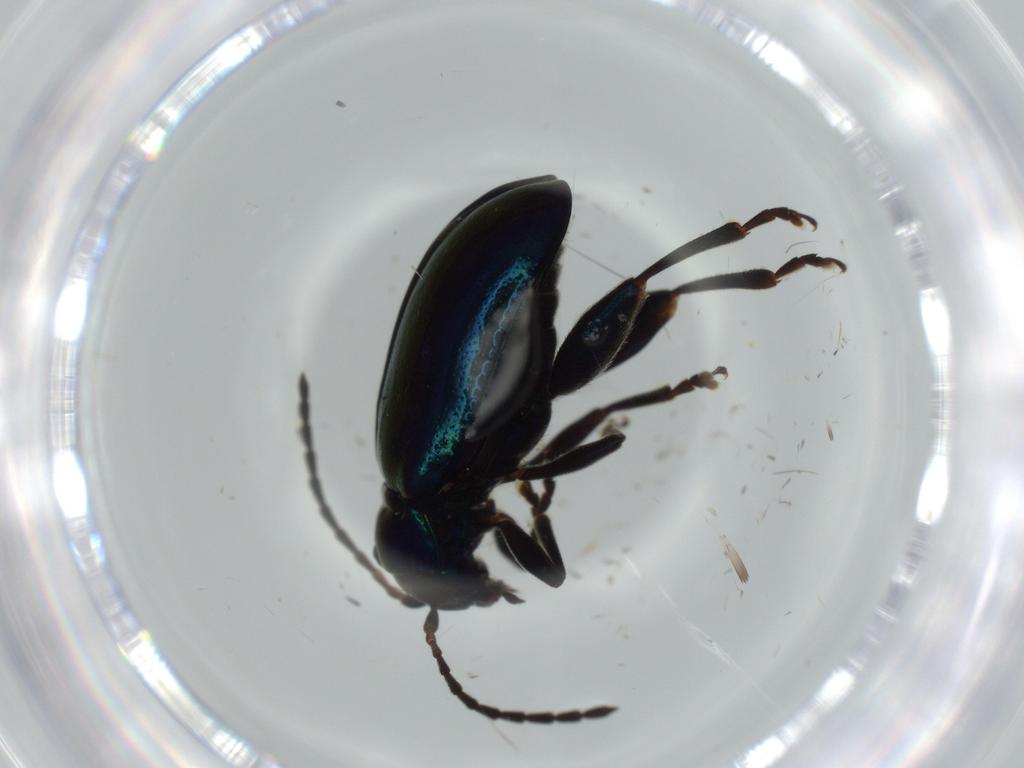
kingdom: Animalia
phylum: Arthropoda
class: Insecta
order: Coleoptera
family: Chrysomelidae
